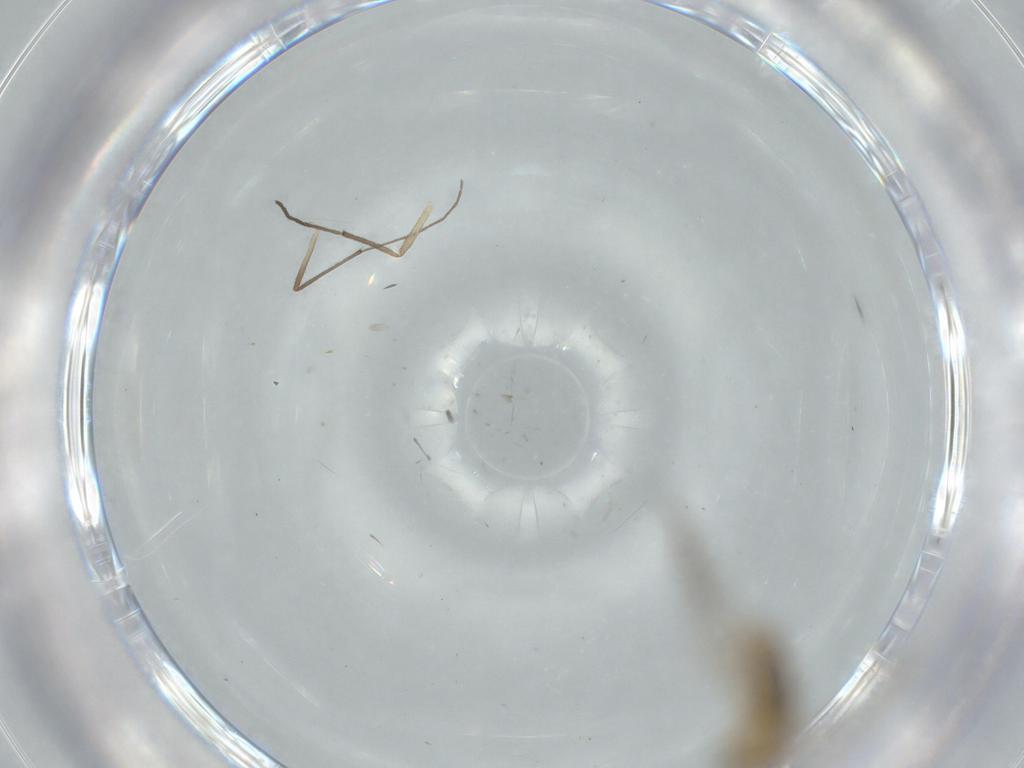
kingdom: Animalia
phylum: Arthropoda
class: Insecta
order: Diptera
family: Chironomidae
